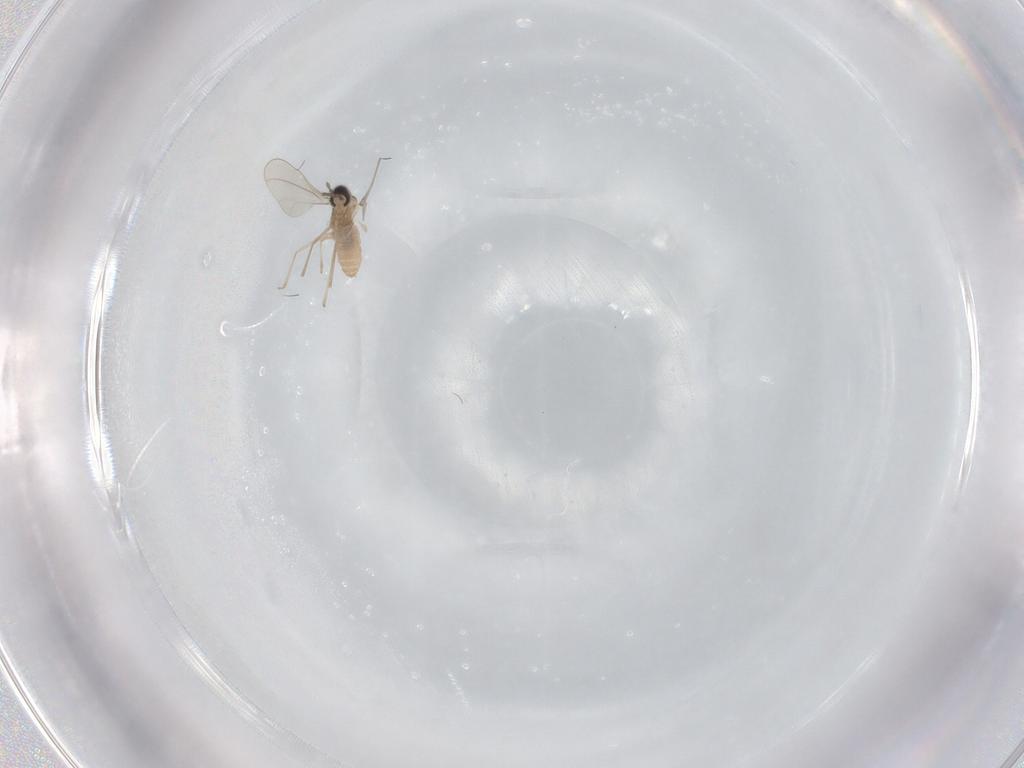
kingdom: Animalia
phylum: Arthropoda
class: Insecta
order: Diptera
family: Cecidomyiidae
